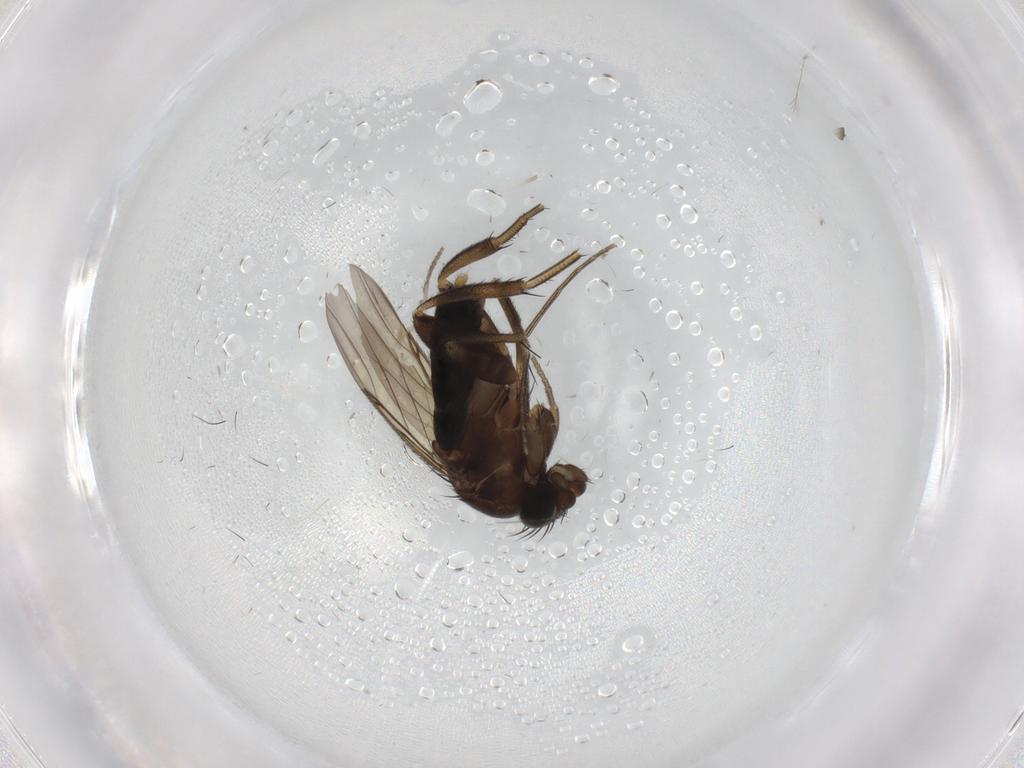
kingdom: Animalia
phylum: Arthropoda
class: Insecta
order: Diptera
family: Phoridae
